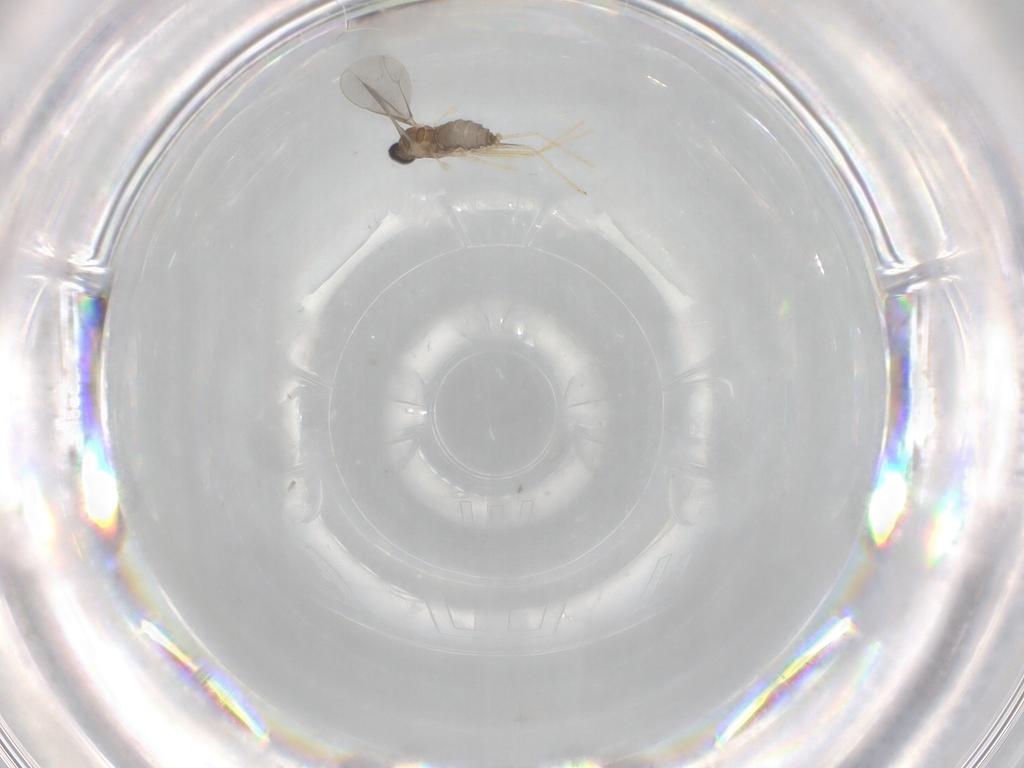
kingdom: Animalia
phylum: Arthropoda
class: Insecta
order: Diptera
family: Cecidomyiidae
